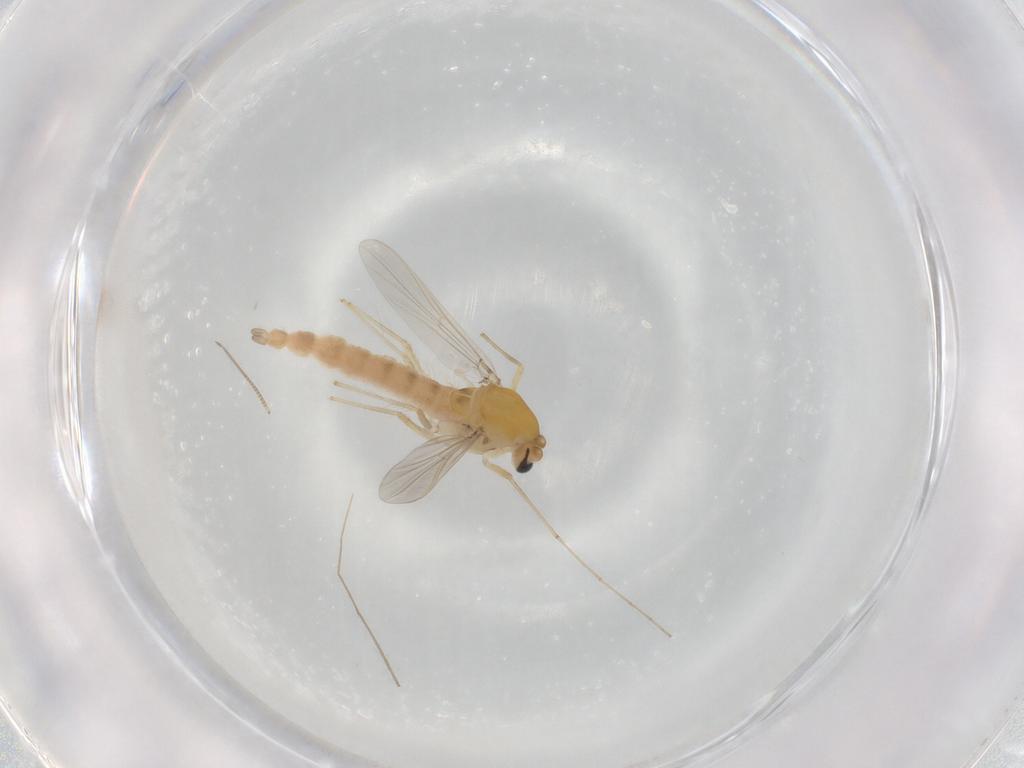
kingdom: Animalia
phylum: Arthropoda
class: Insecta
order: Diptera
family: Chironomidae
